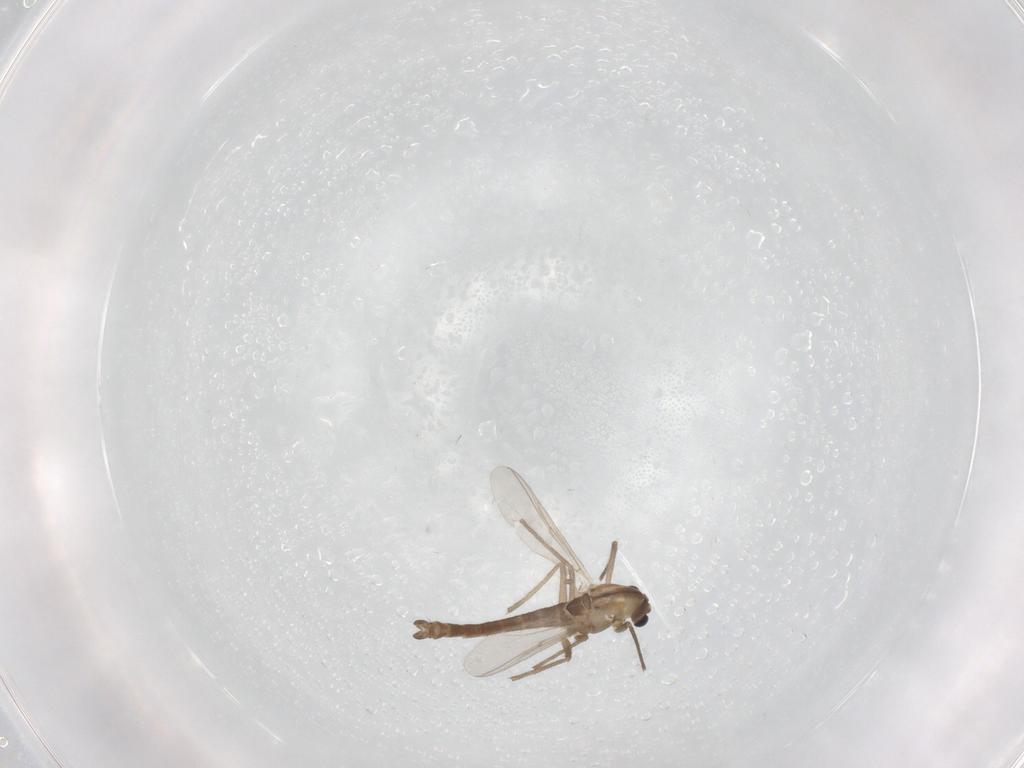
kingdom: Animalia
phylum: Arthropoda
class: Insecta
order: Diptera
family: Chironomidae
